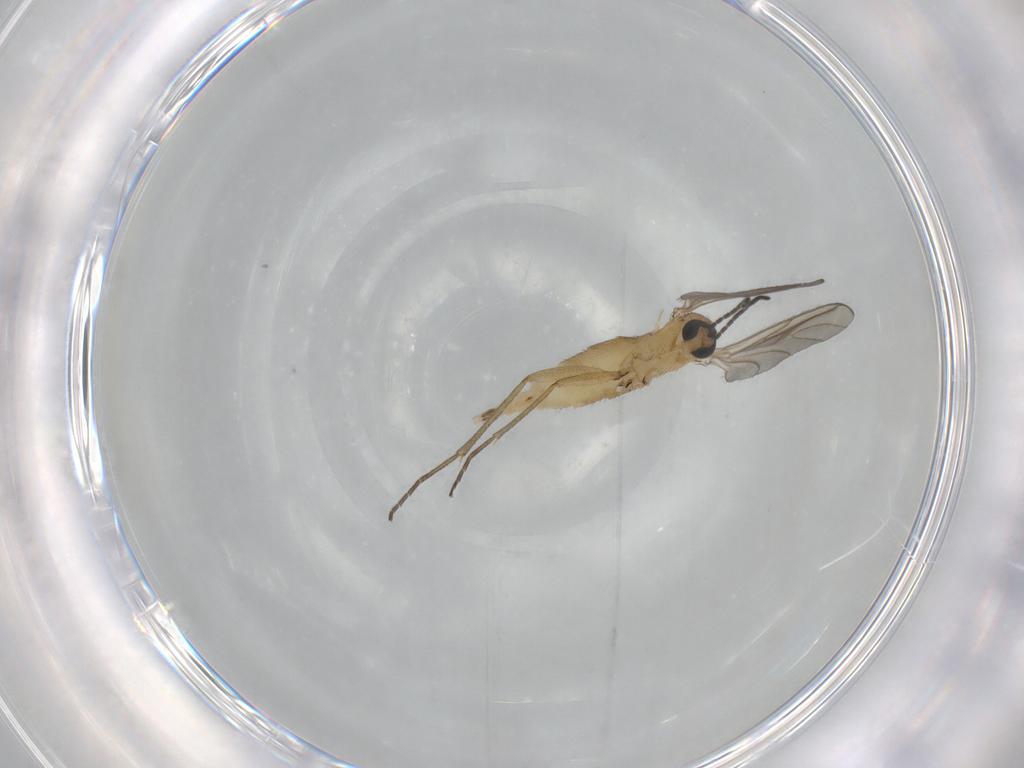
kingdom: Animalia
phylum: Arthropoda
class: Insecta
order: Diptera
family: Sciaridae
